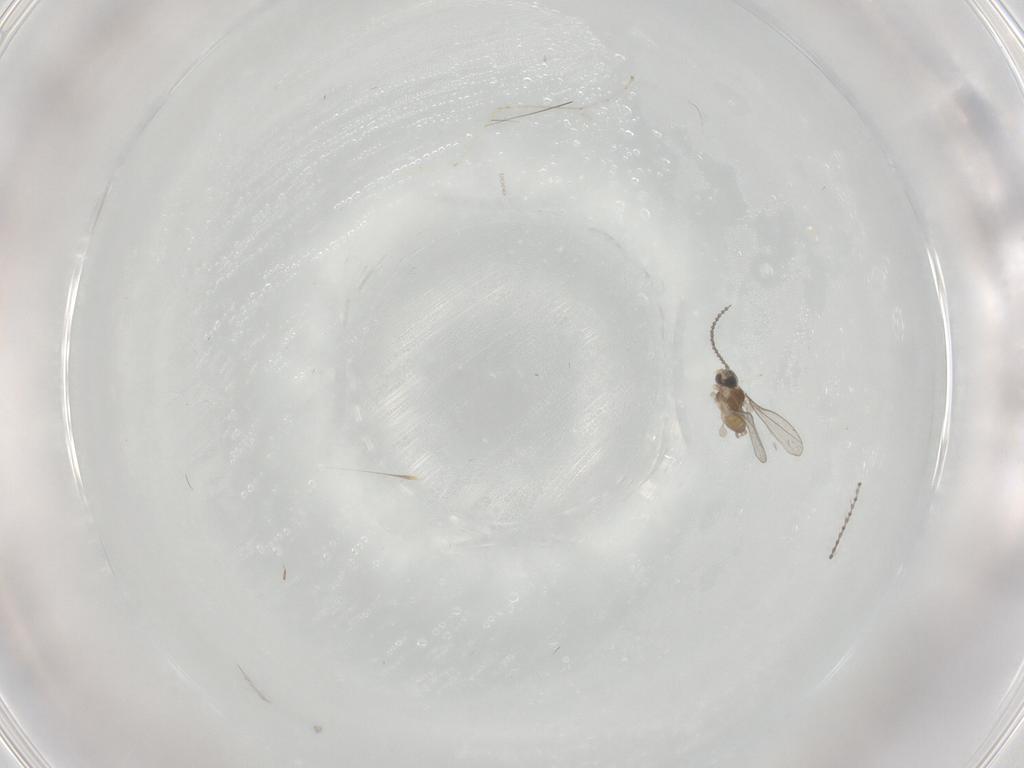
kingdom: Animalia
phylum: Arthropoda
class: Insecta
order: Diptera
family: Cecidomyiidae
